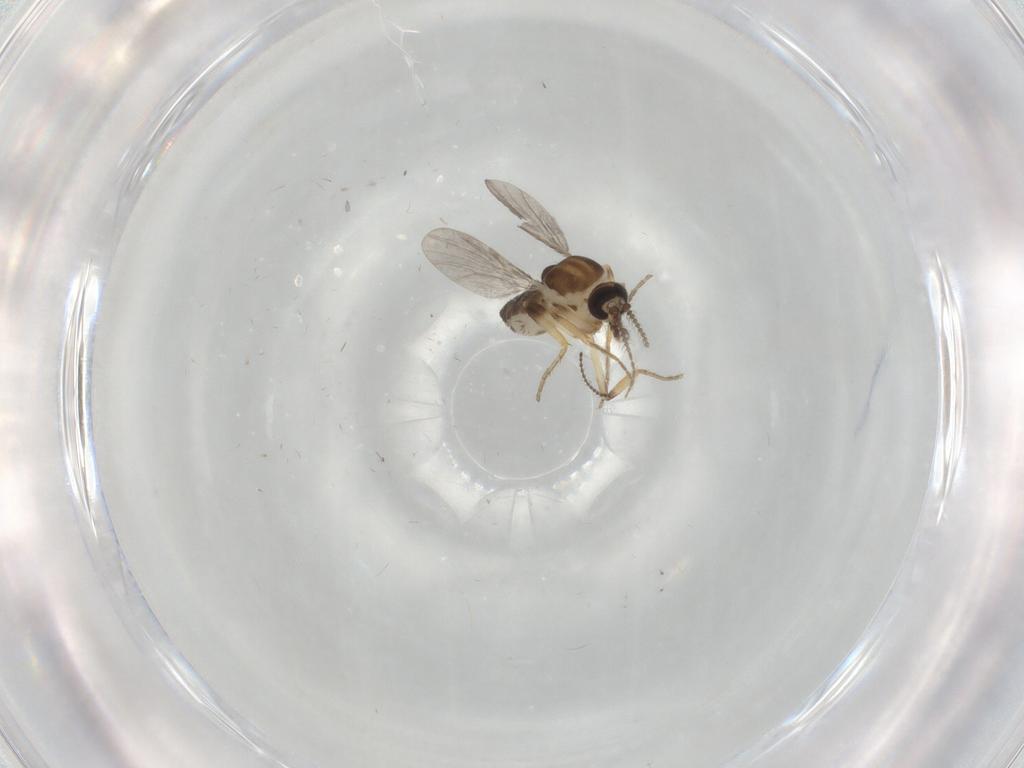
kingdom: Animalia
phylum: Arthropoda
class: Insecta
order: Diptera
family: Ceratopogonidae
